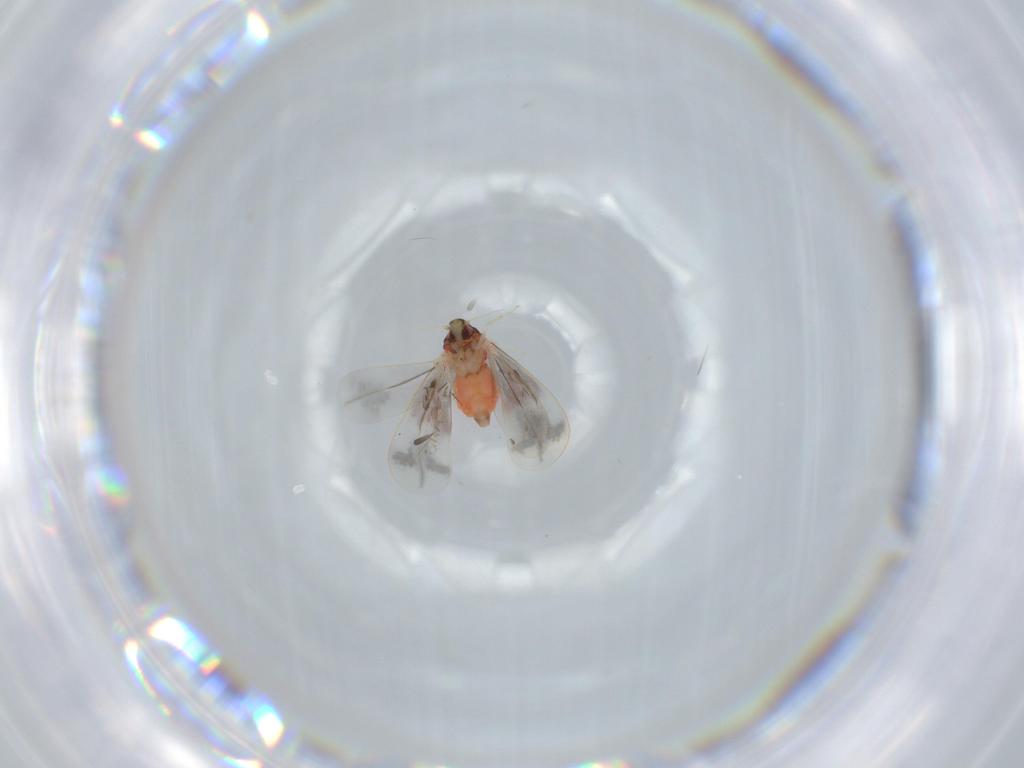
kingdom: Animalia
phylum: Arthropoda
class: Insecta
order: Hemiptera
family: Aleyrodidae
